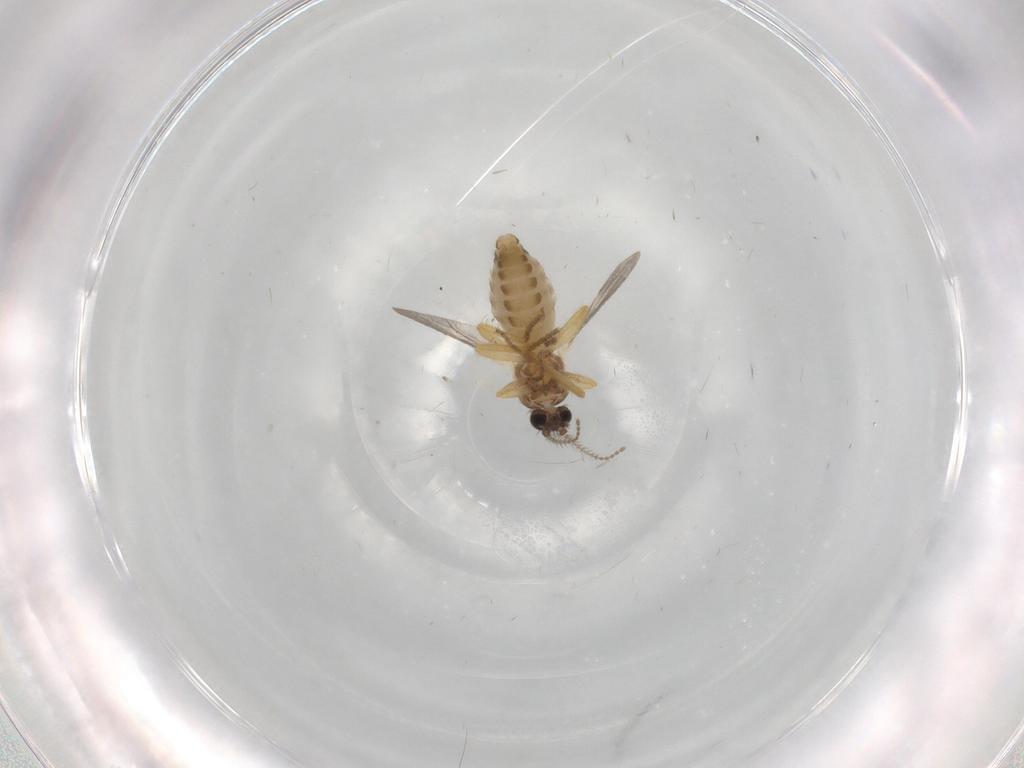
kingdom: Animalia
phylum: Arthropoda
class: Insecta
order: Diptera
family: Ceratopogonidae
